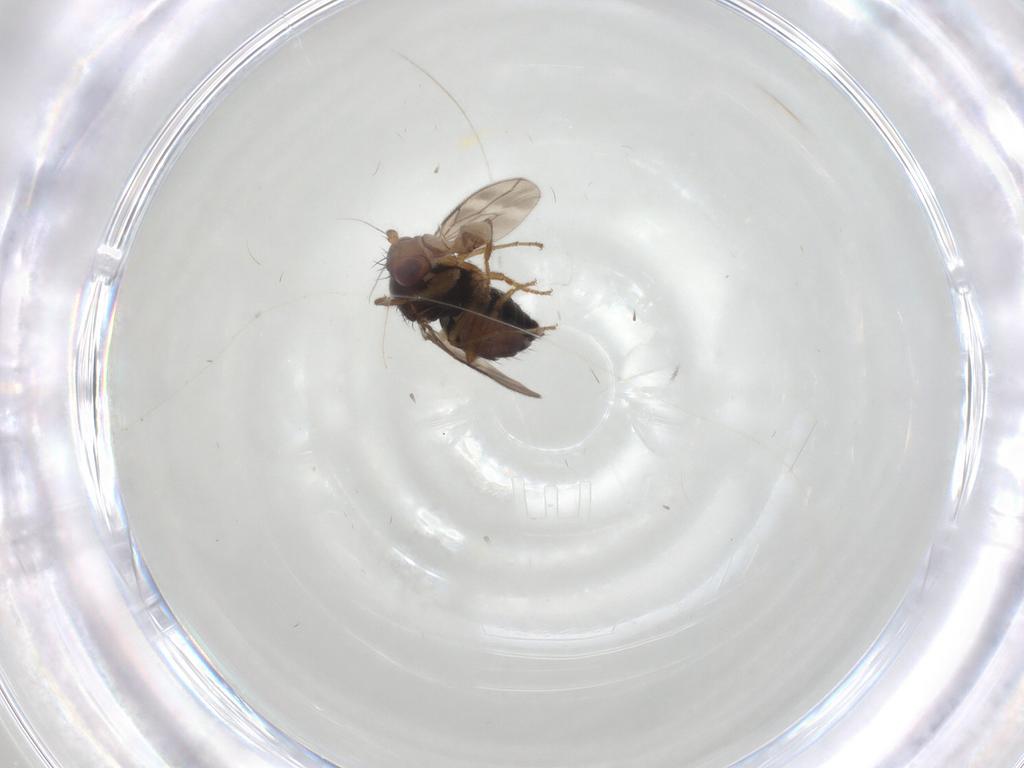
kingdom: Animalia
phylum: Arthropoda
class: Insecta
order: Diptera
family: Sphaeroceridae
